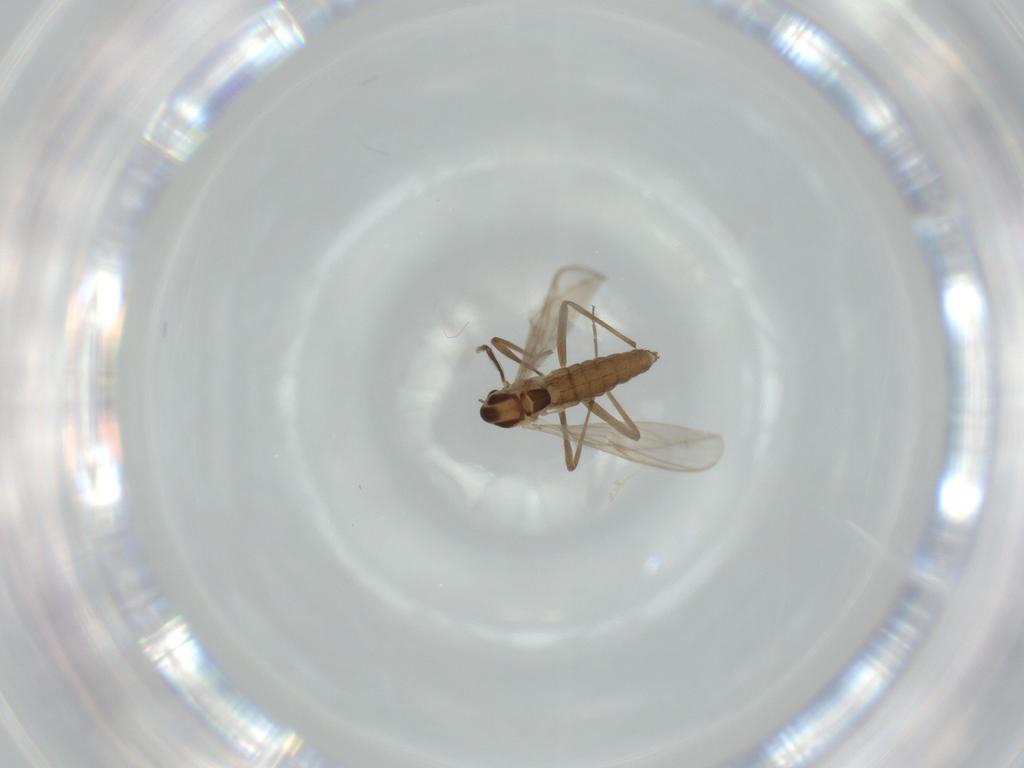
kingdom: Animalia
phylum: Arthropoda
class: Insecta
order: Diptera
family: Chironomidae
